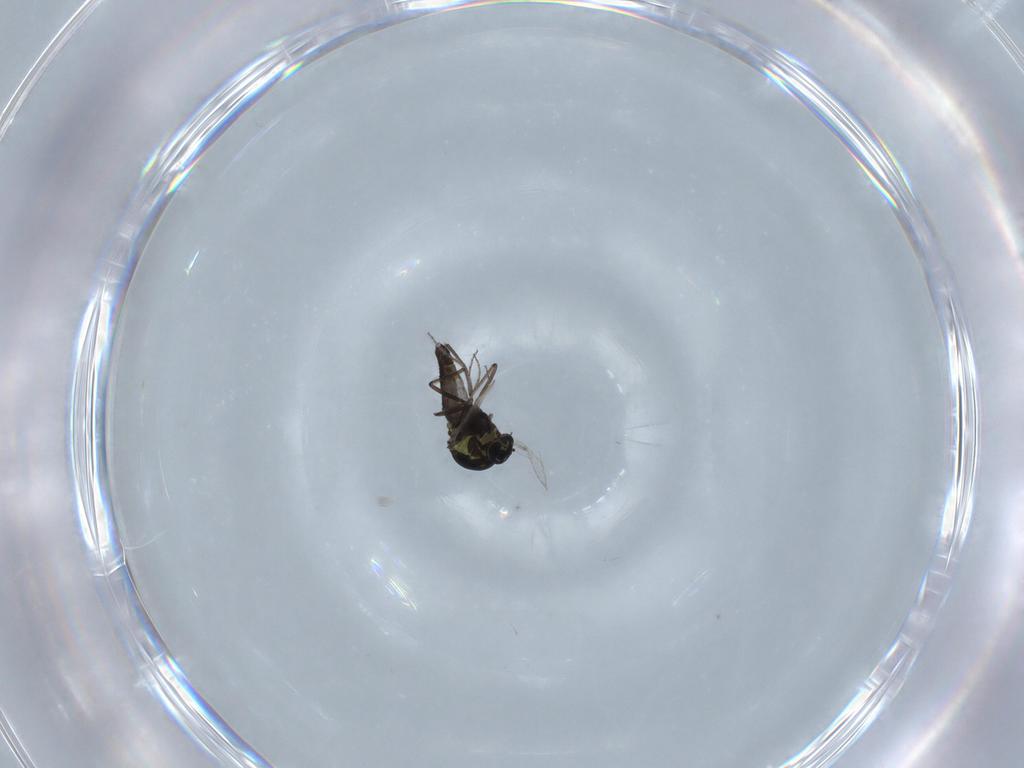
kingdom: Animalia
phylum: Arthropoda
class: Insecta
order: Diptera
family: Ceratopogonidae
